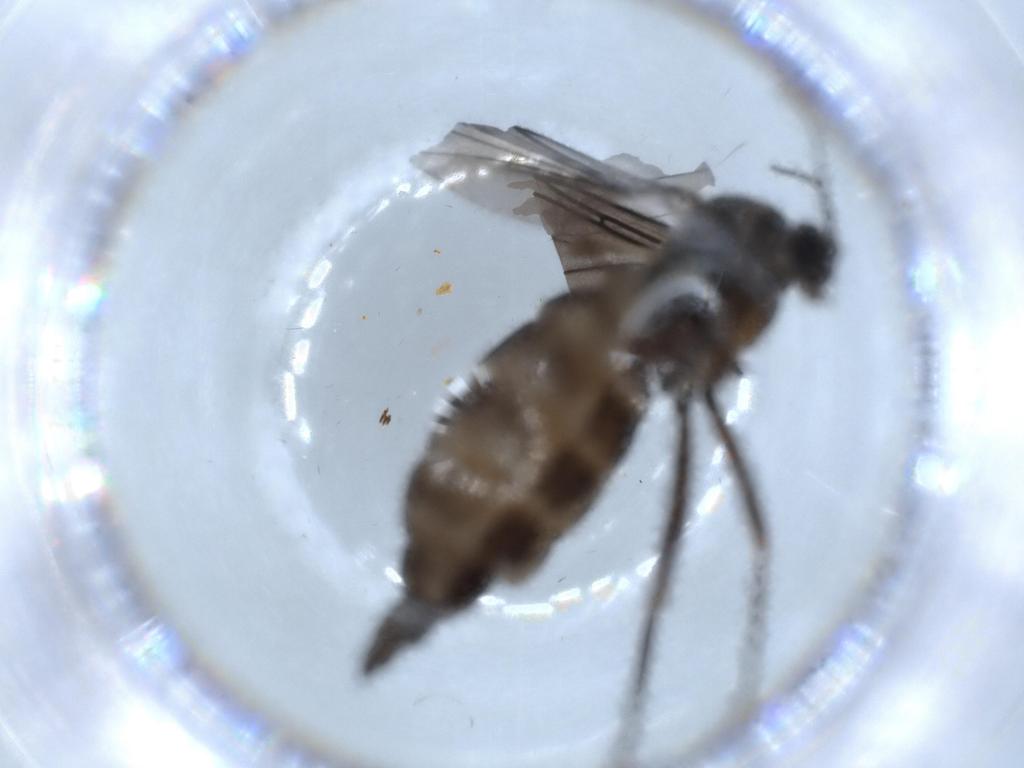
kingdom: Animalia
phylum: Arthropoda
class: Insecta
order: Diptera
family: Sciaridae
